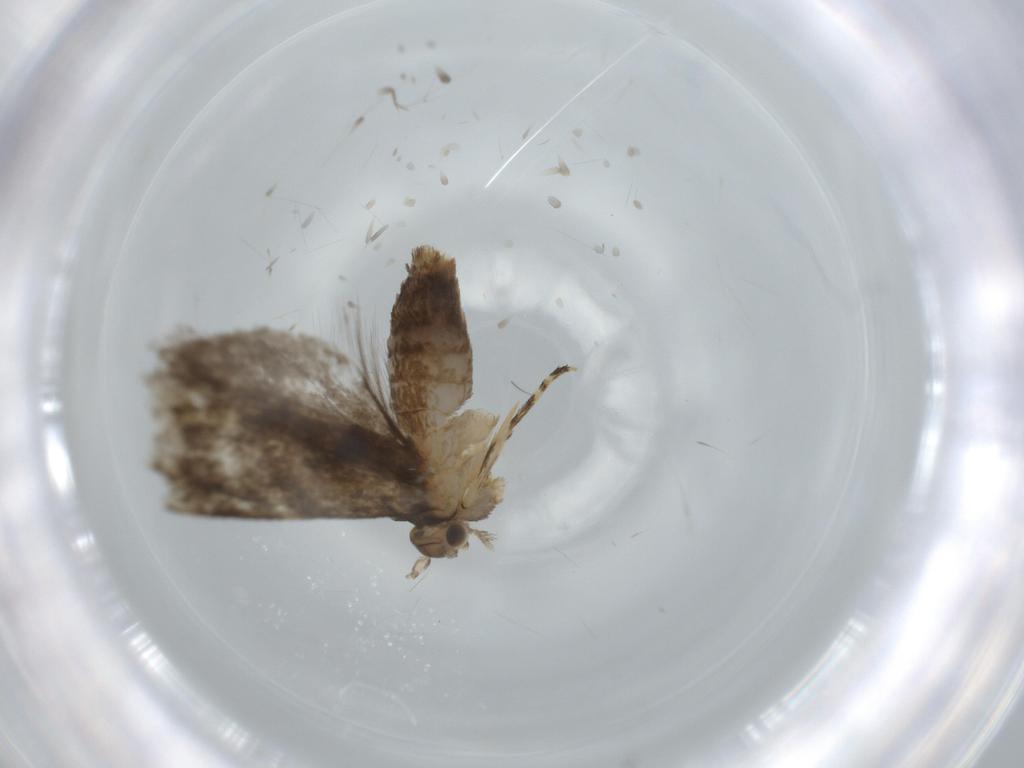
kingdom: Animalia
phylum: Arthropoda
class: Insecta
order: Lepidoptera
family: Tineidae
